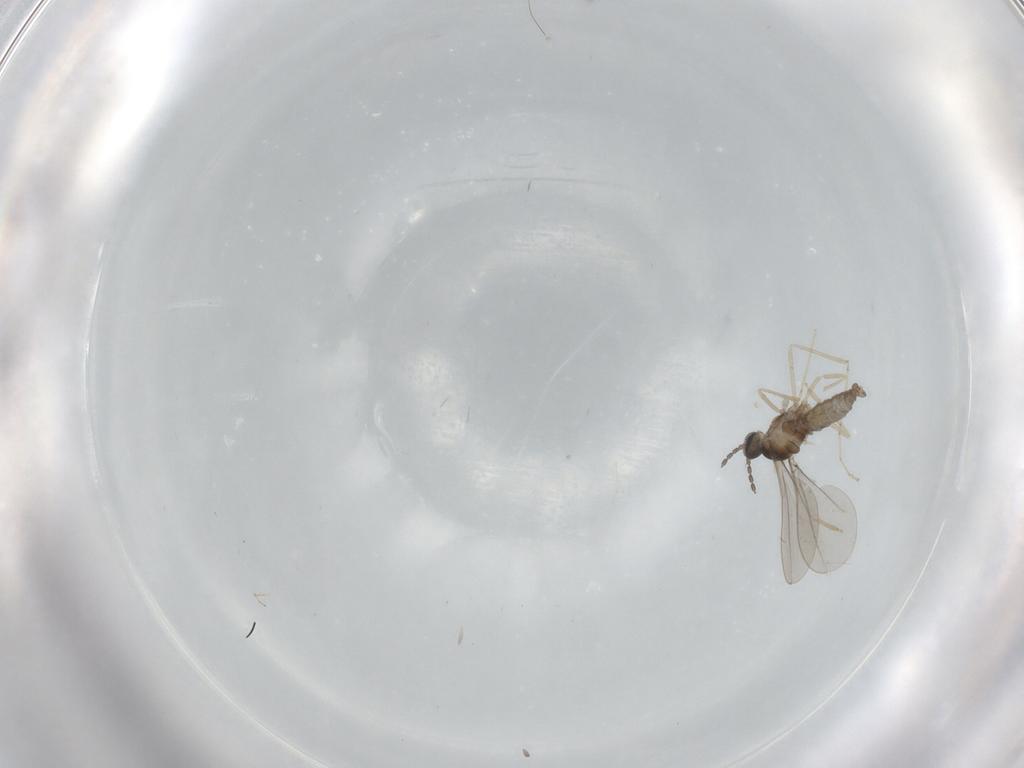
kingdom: Animalia
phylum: Arthropoda
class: Insecta
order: Diptera
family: Cecidomyiidae
